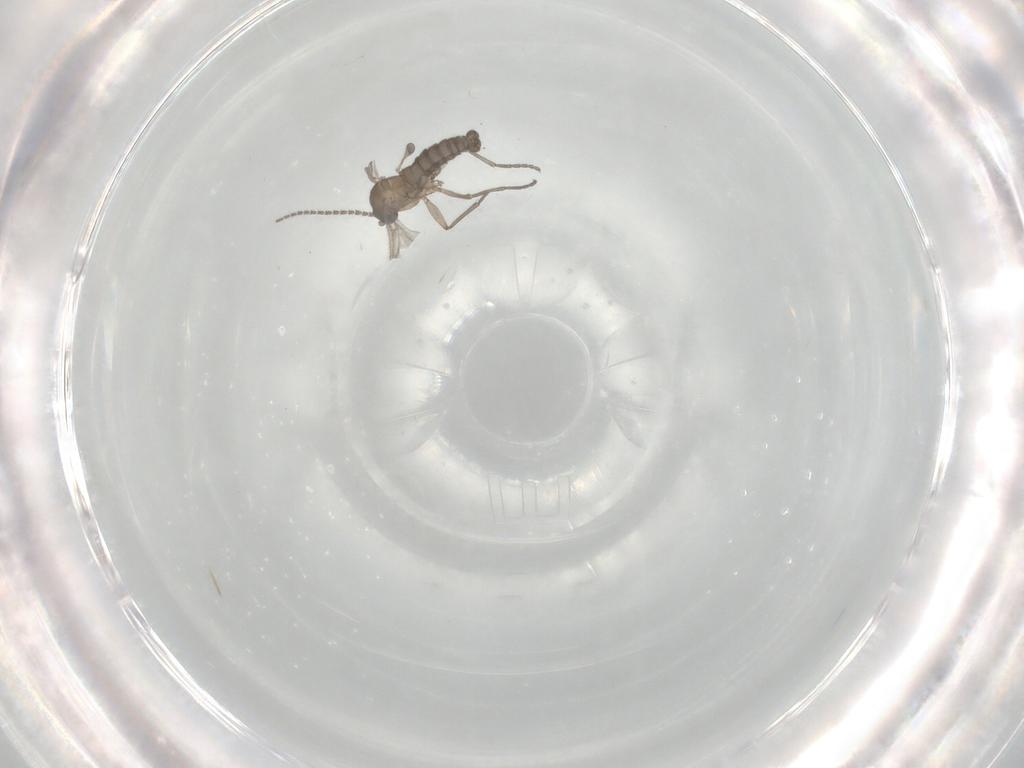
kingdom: Animalia
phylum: Arthropoda
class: Insecta
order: Diptera
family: Sciaridae
